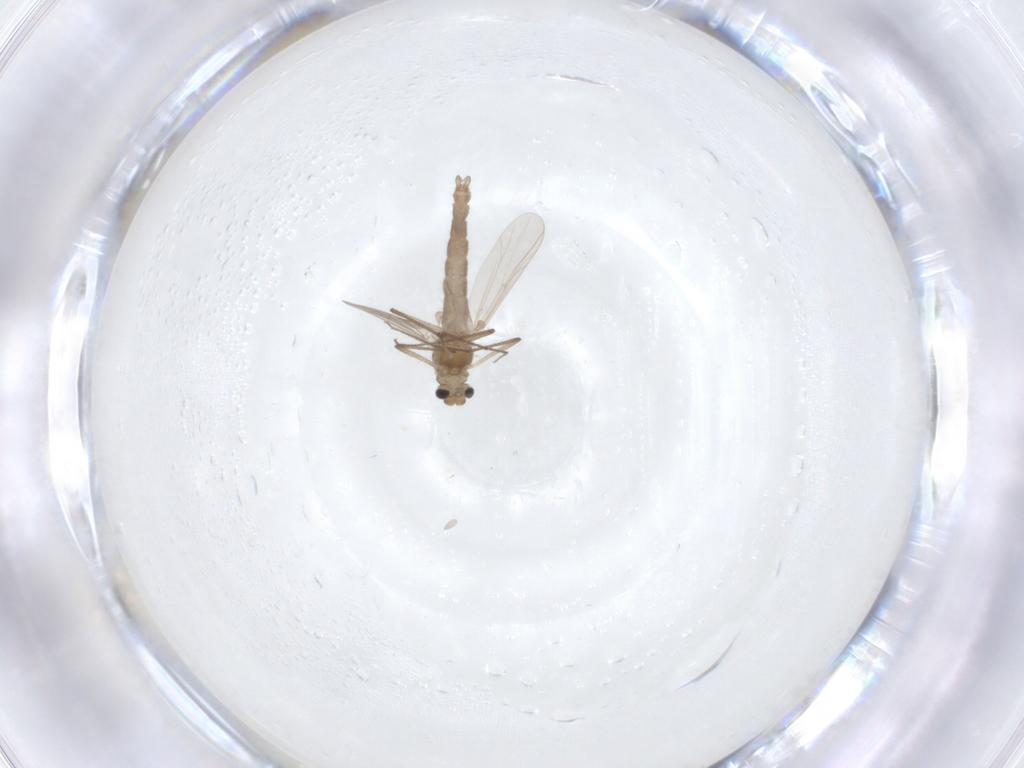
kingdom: Animalia
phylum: Arthropoda
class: Insecta
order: Diptera
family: Chironomidae
